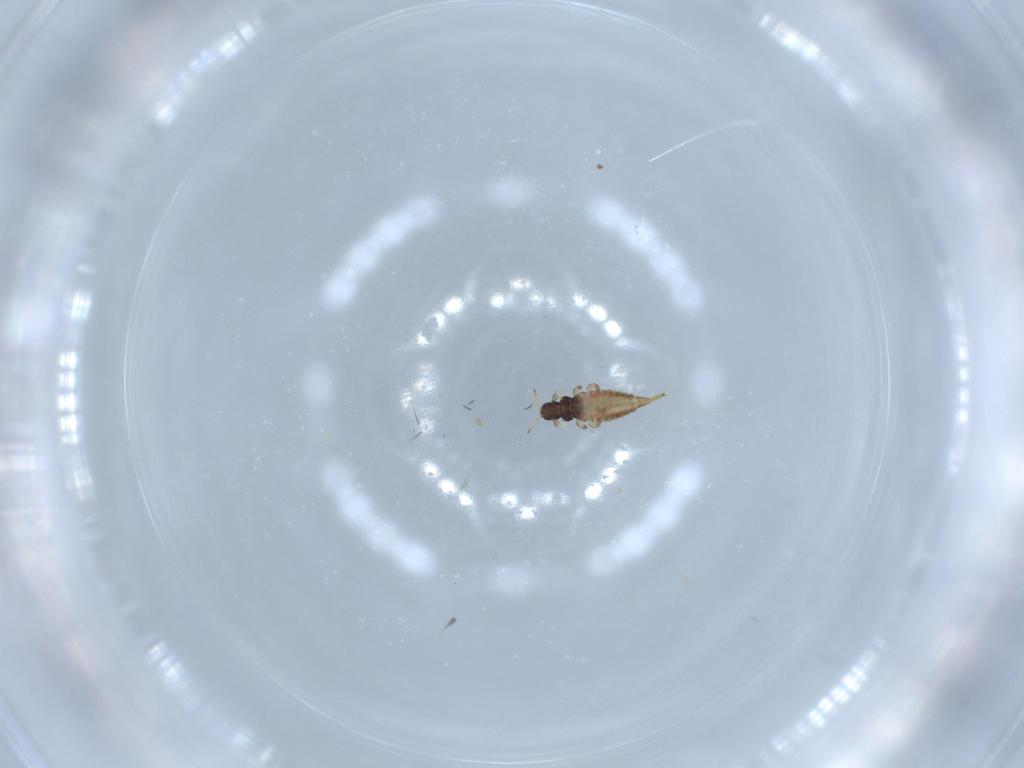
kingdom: Animalia
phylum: Arthropoda
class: Insecta
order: Thysanoptera
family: Phlaeothripidae
